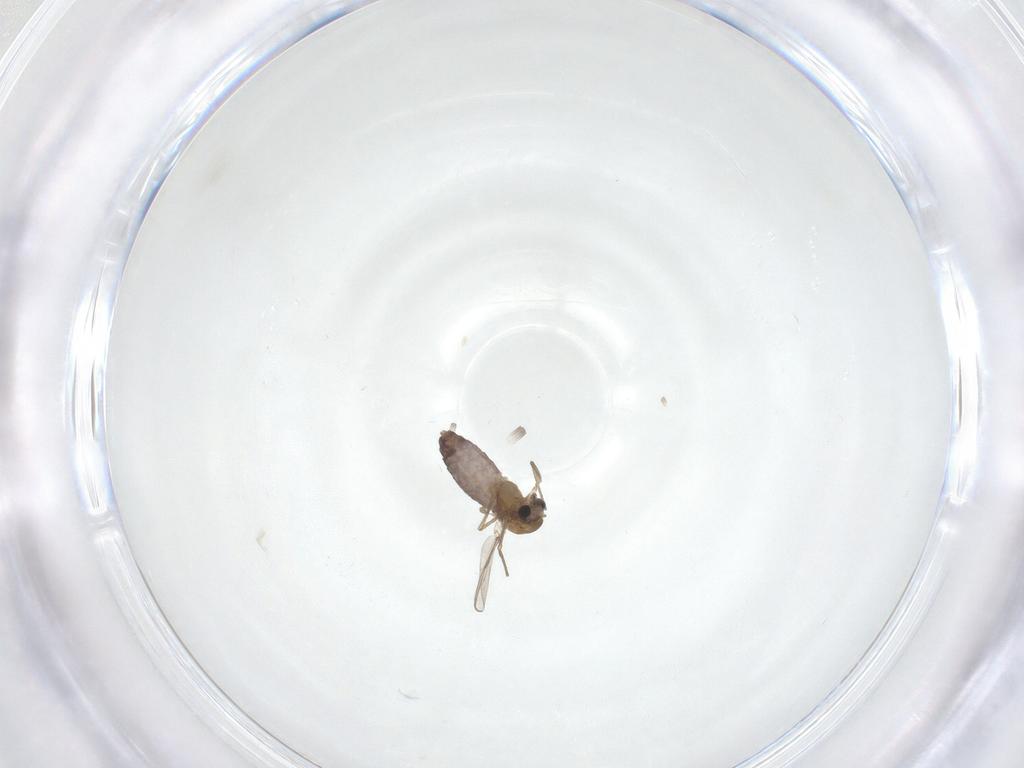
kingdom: Animalia
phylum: Arthropoda
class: Insecta
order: Diptera
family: Chironomidae
